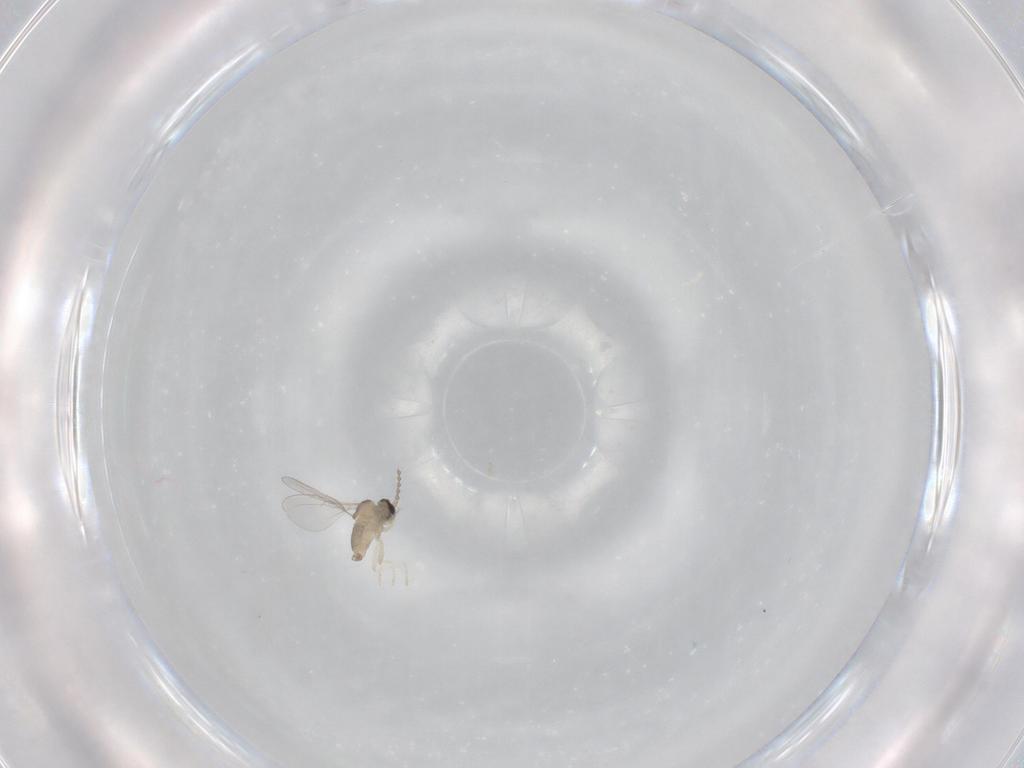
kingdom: Animalia
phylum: Arthropoda
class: Insecta
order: Diptera
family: Cecidomyiidae
